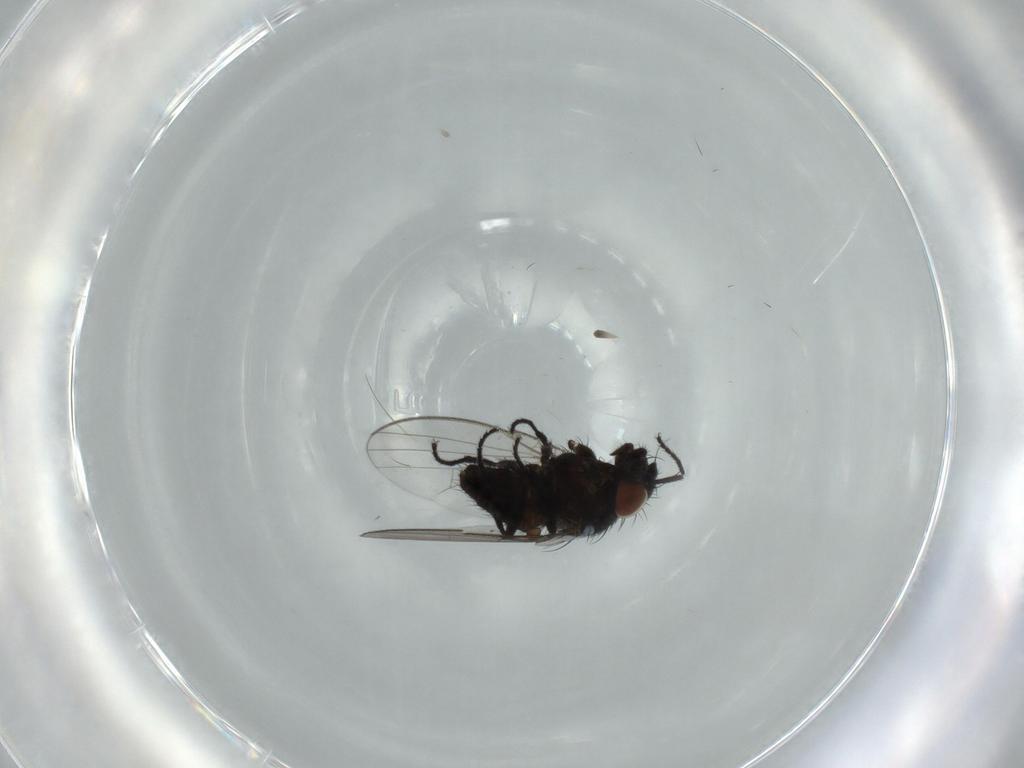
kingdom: Animalia
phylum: Arthropoda
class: Insecta
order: Diptera
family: Milichiidae
